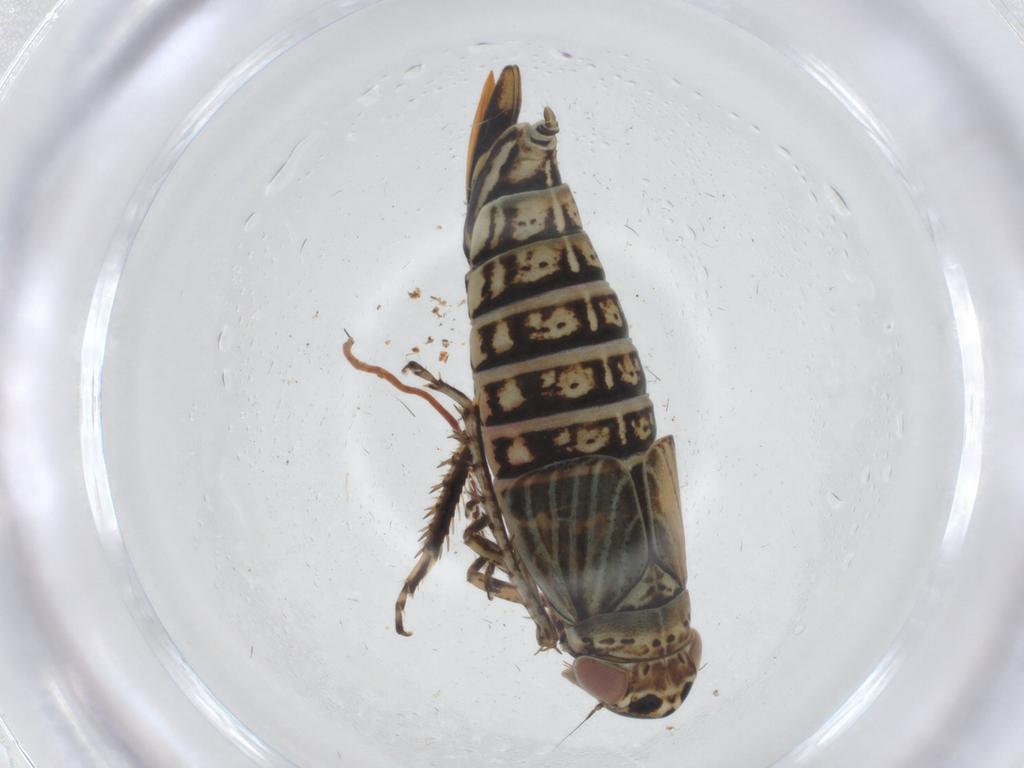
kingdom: Animalia
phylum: Arthropoda
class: Insecta
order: Hemiptera
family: Cicadellidae
